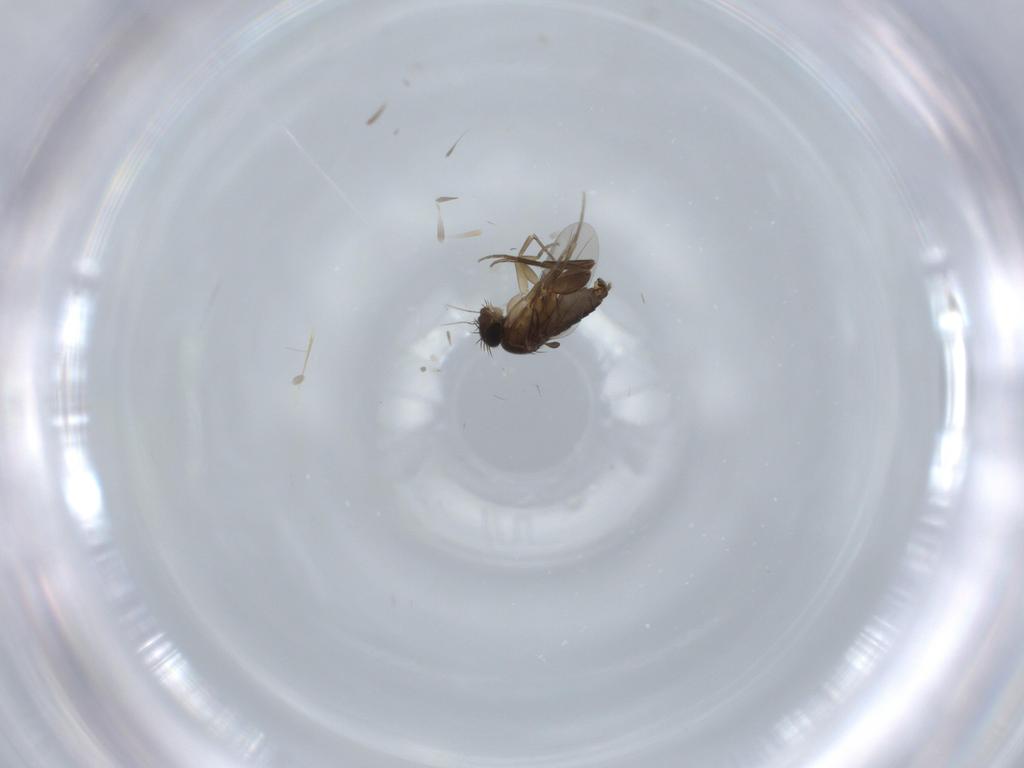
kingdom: Animalia
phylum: Arthropoda
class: Insecta
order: Diptera
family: Phoridae
